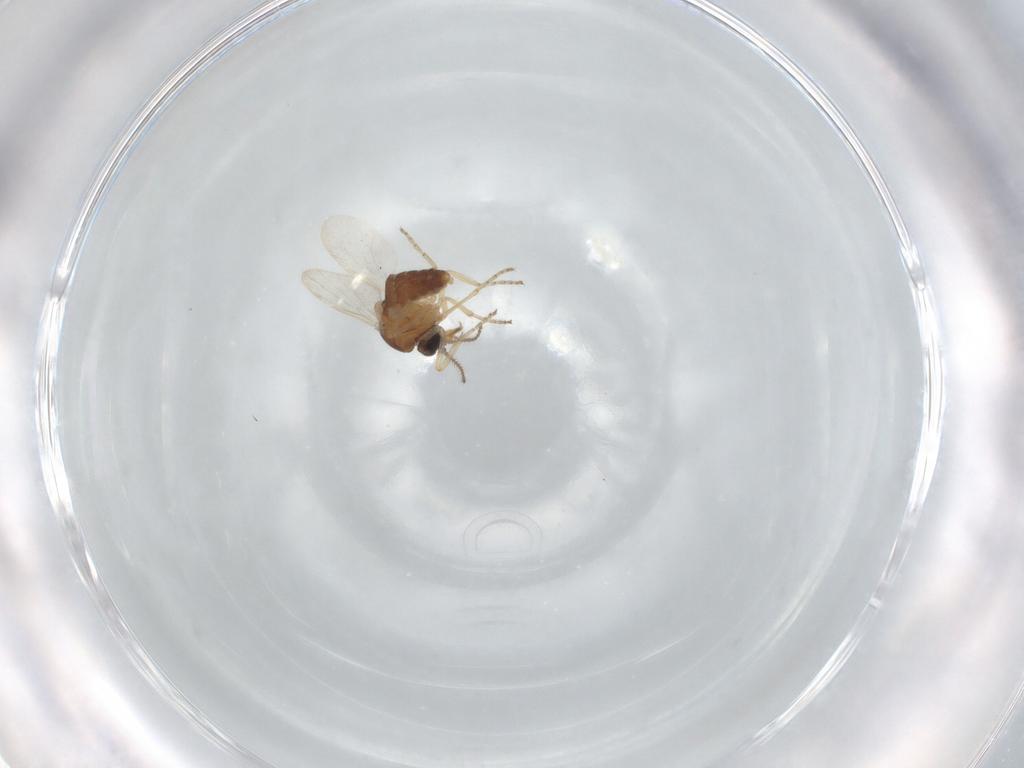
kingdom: Animalia
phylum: Arthropoda
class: Insecta
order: Diptera
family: Ceratopogonidae
